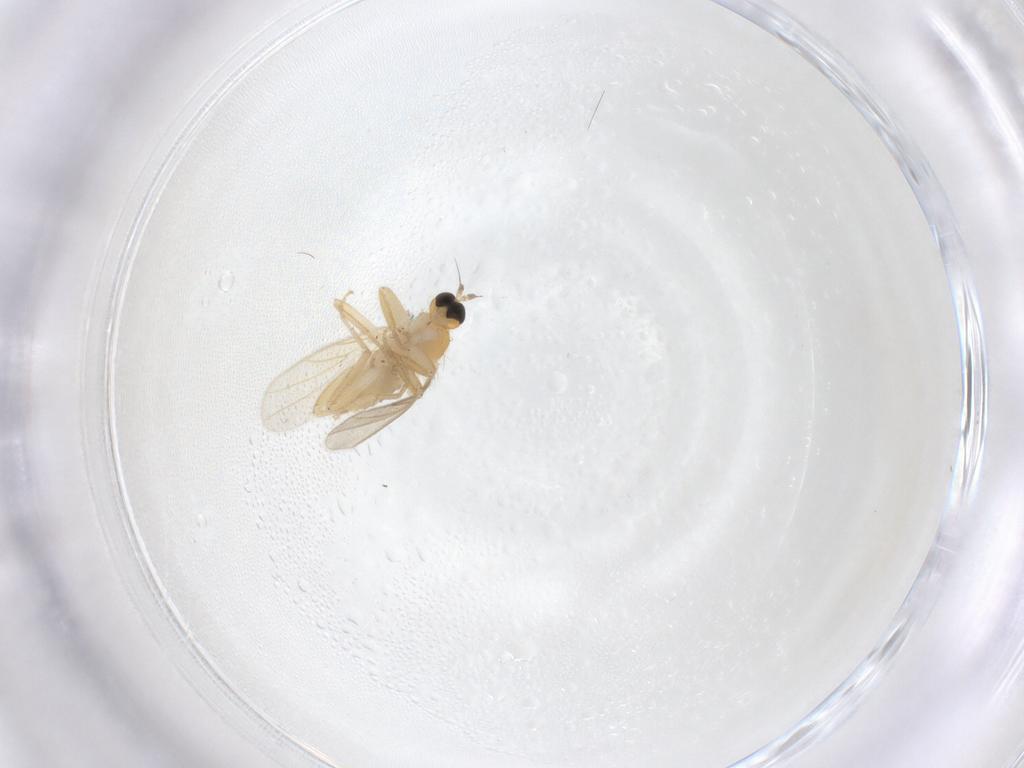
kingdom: Animalia
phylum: Arthropoda
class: Insecta
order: Diptera
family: Hybotidae
